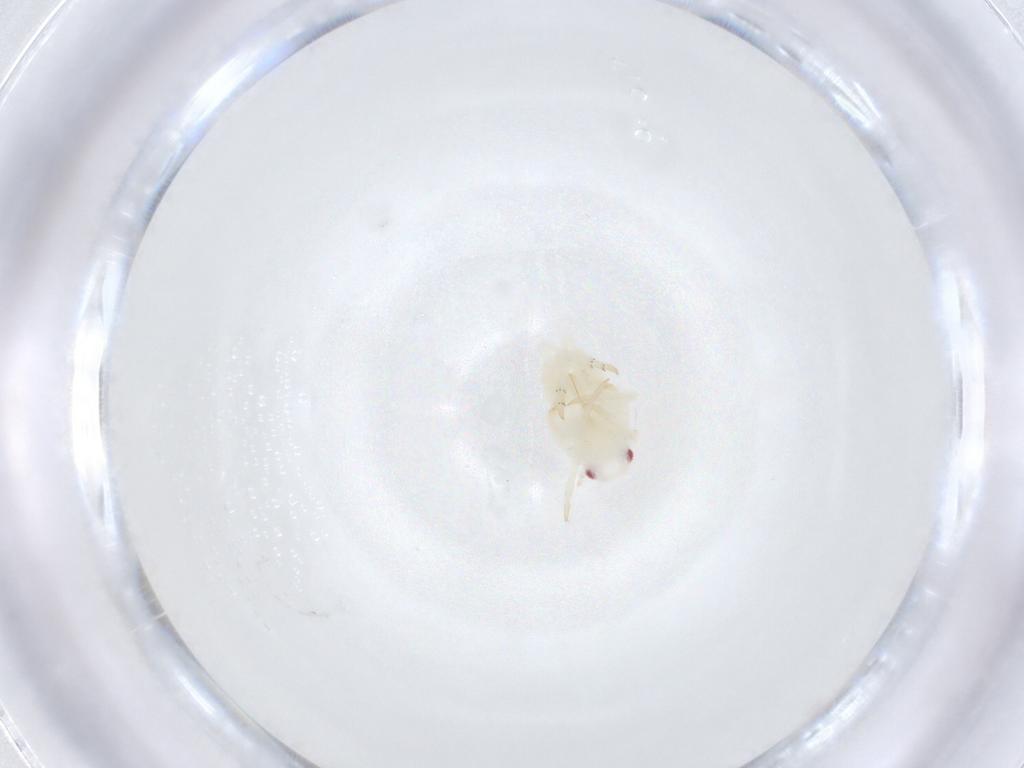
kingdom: Animalia
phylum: Arthropoda
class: Insecta
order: Hemiptera
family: Flatidae
